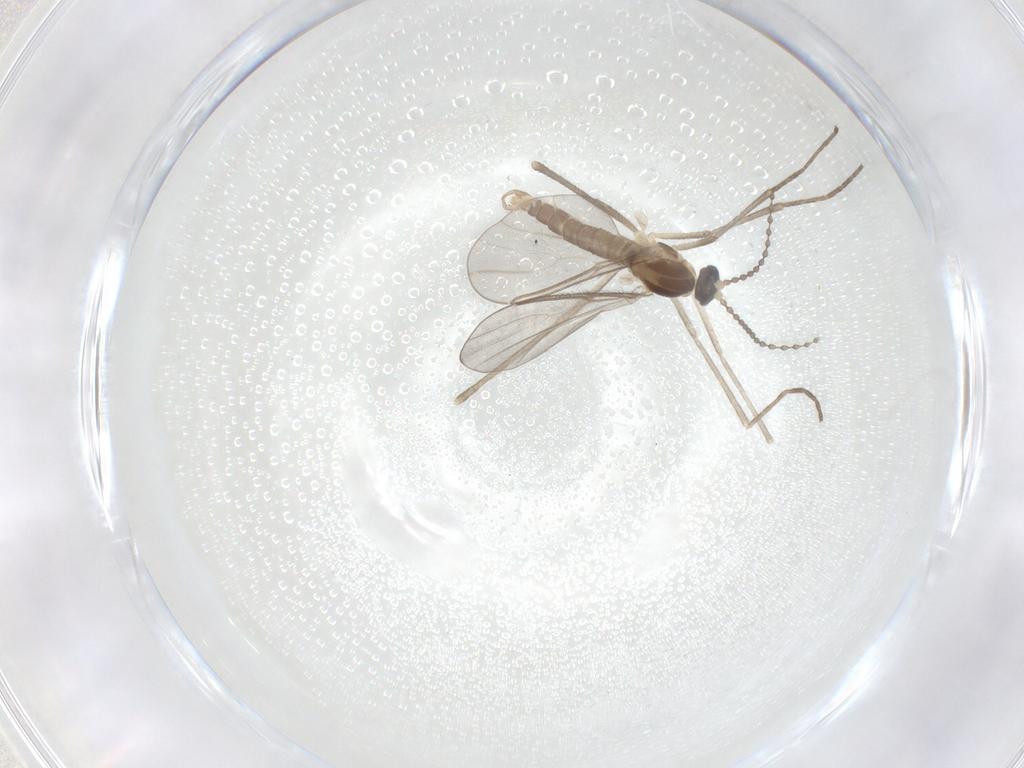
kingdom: Animalia
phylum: Arthropoda
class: Insecta
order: Diptera
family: Cecidomyiidae
